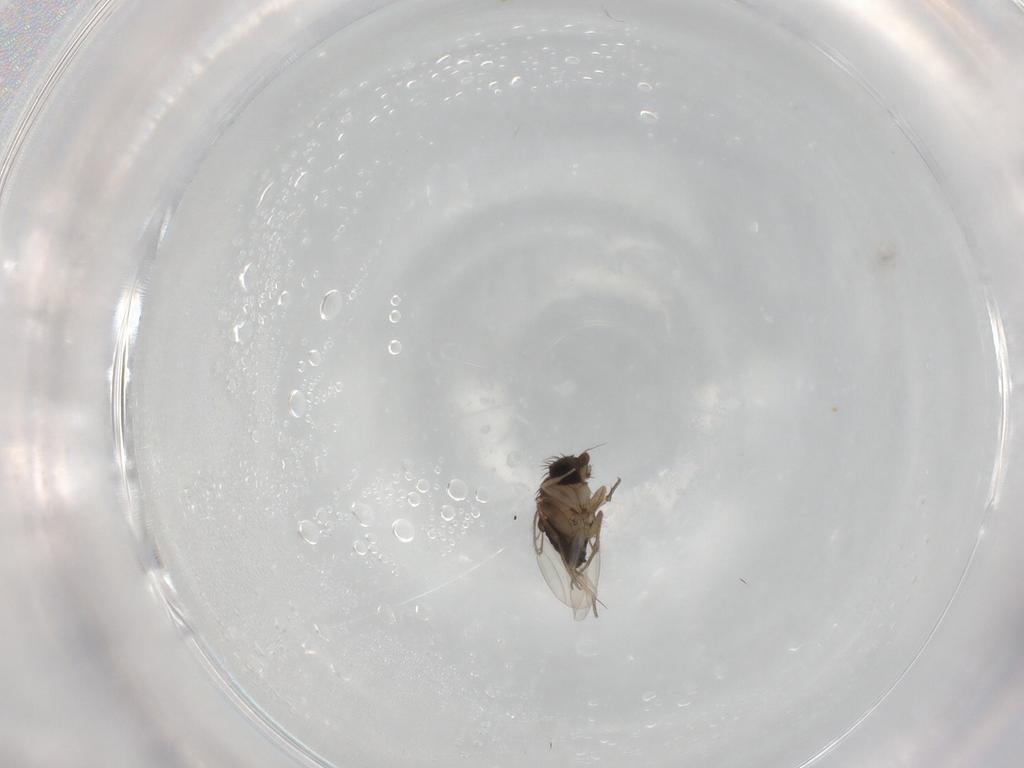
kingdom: Animalia
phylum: Arthropoda
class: Insecta
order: Diptera
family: Phoridae
